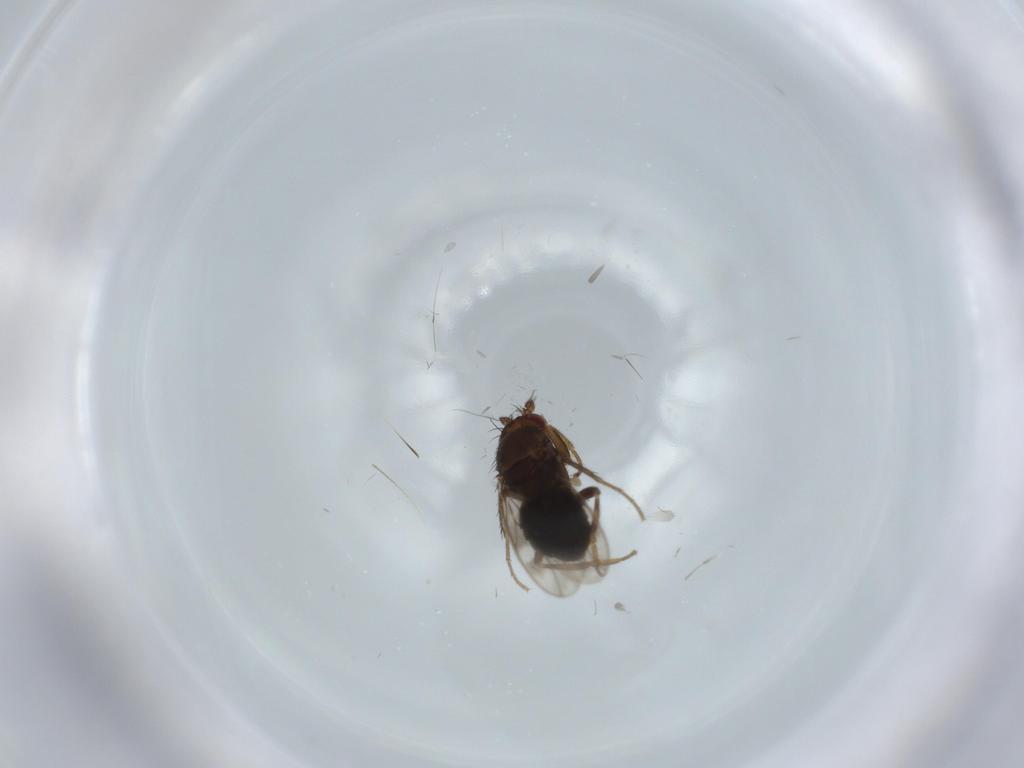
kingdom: Animalia
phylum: Arthropoda
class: Insecta
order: Diptera
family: Sphaeroceridae
